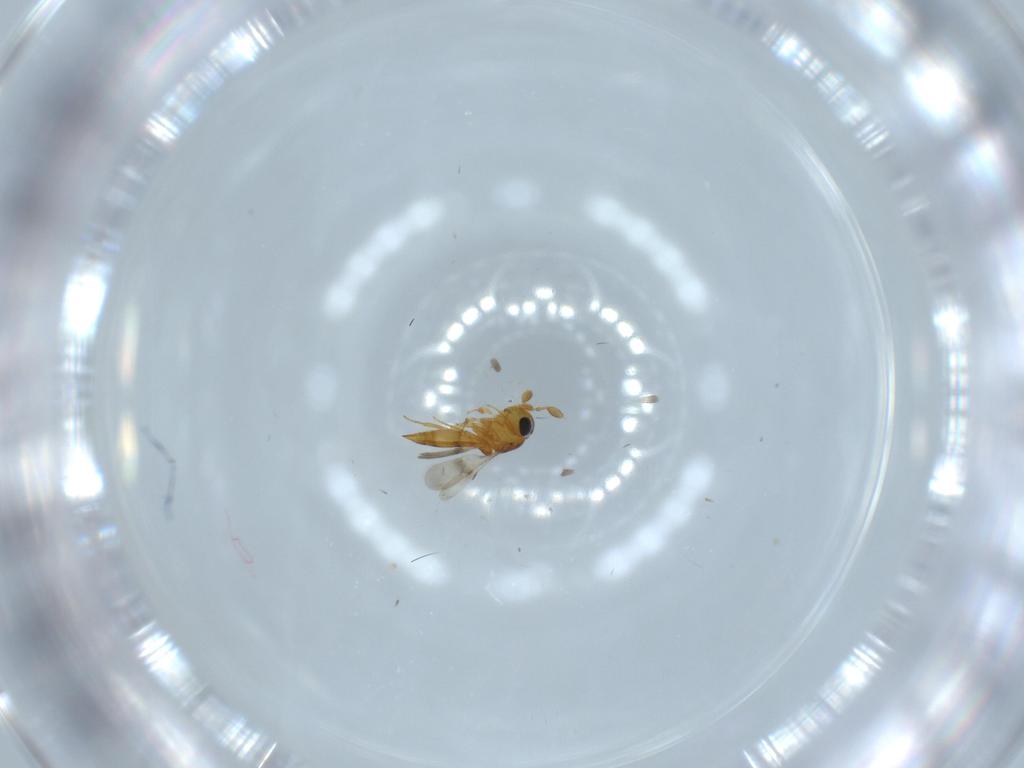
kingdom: Animalia
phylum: Arthropoda
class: Insecta
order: Hymenoptera
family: Scelionidae
